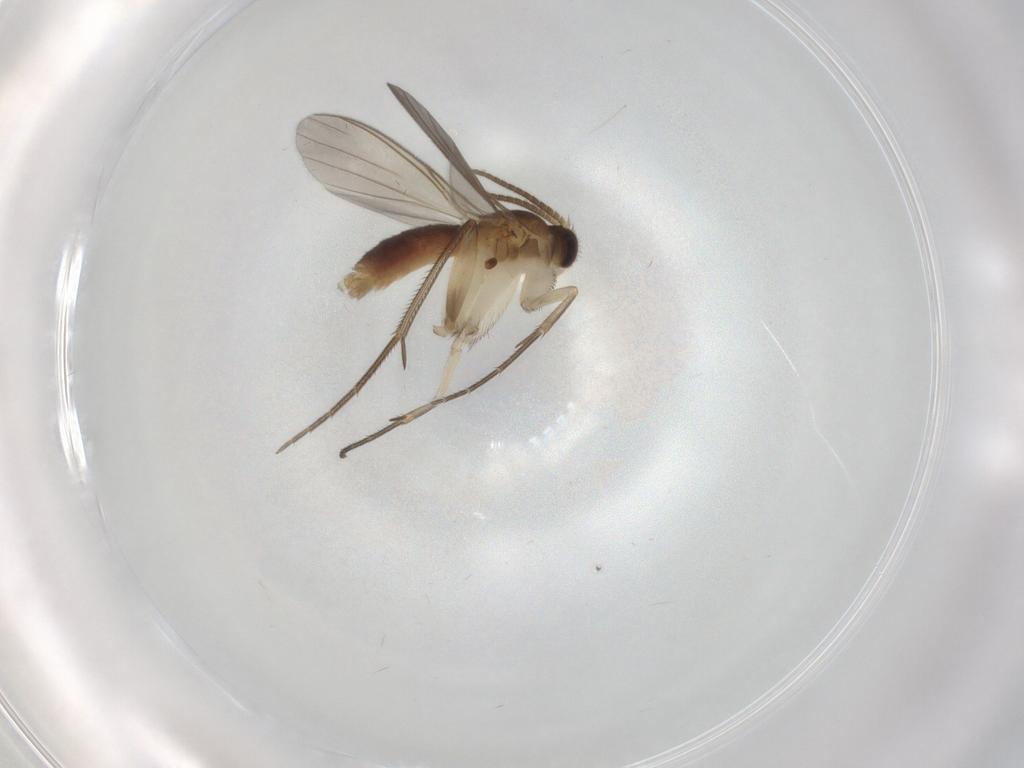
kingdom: Animalia
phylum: Arthropoda
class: Insecta
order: Diptera
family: Mycetophilidae
